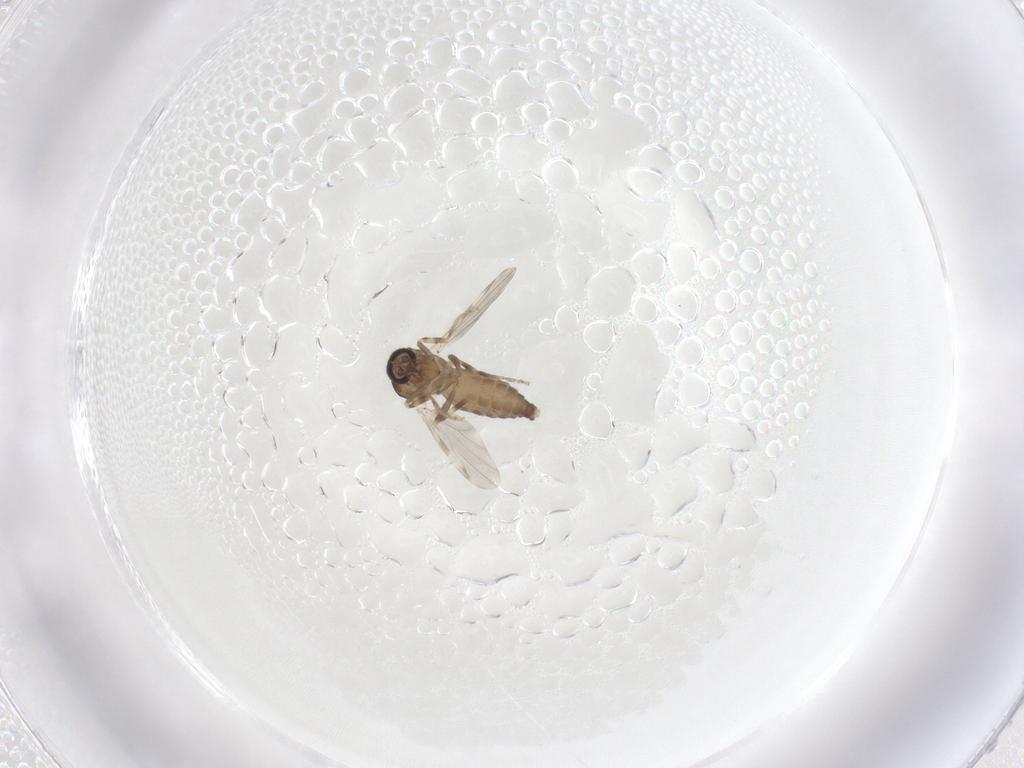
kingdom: Animalia
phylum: Arthropoda
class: Insecta
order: Diptera
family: Ceratopogonidae
